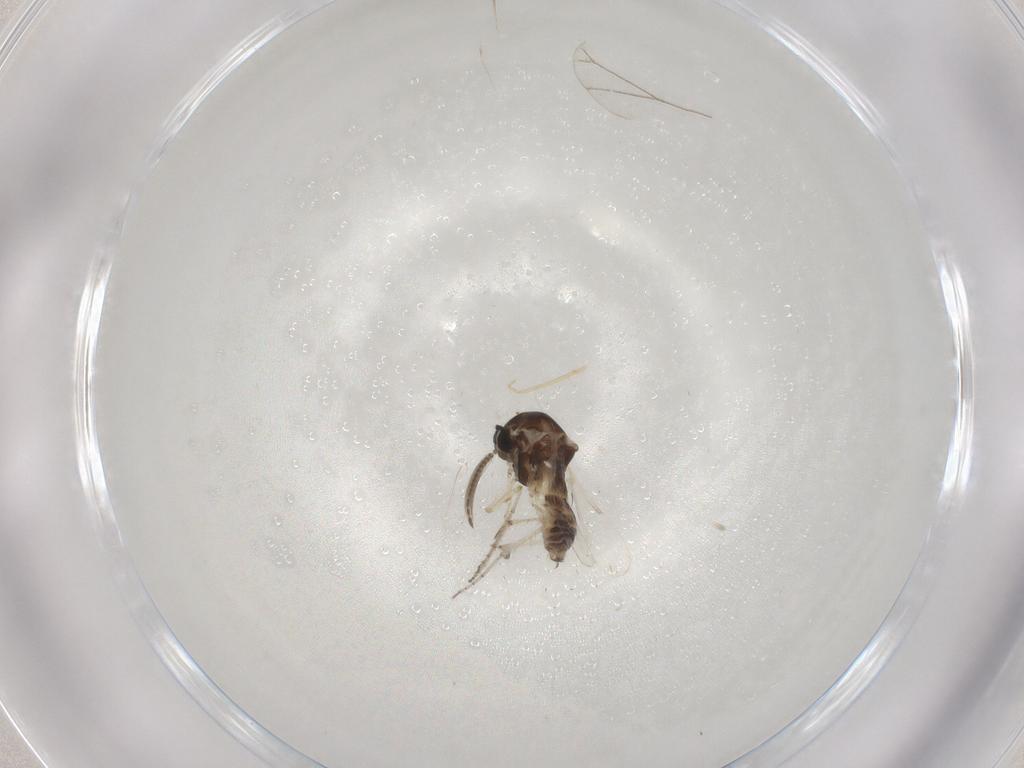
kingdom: Animalia
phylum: Arthropoda
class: Insecta
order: Diptera
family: Ceratopogonidae
